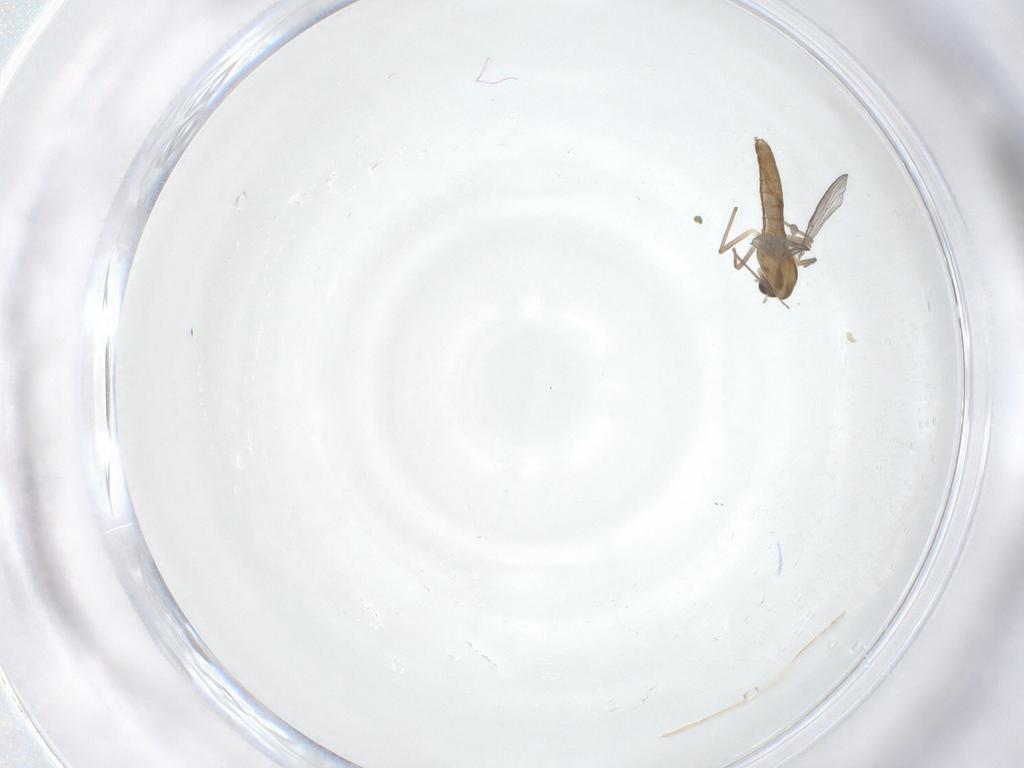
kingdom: Animalia
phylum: Arthropoda
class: Insecta
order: Diptera
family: Chironomidae
